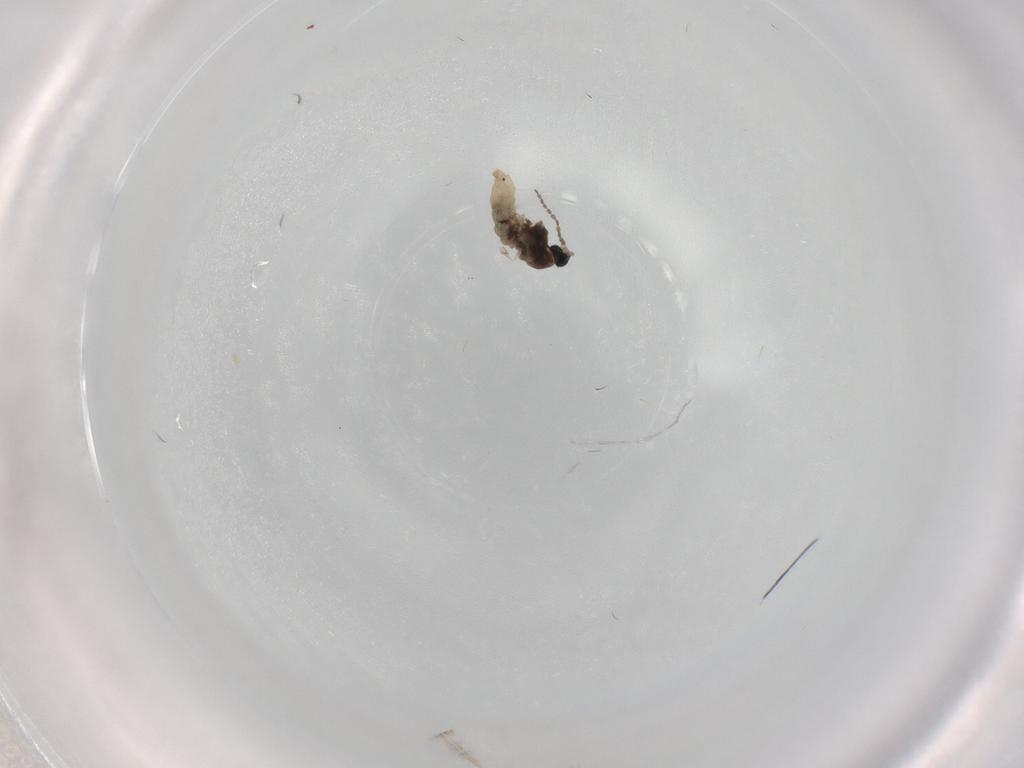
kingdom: Animalia
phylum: Arthropoda
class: Insecta
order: Diptera
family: Cecidomyiidae
